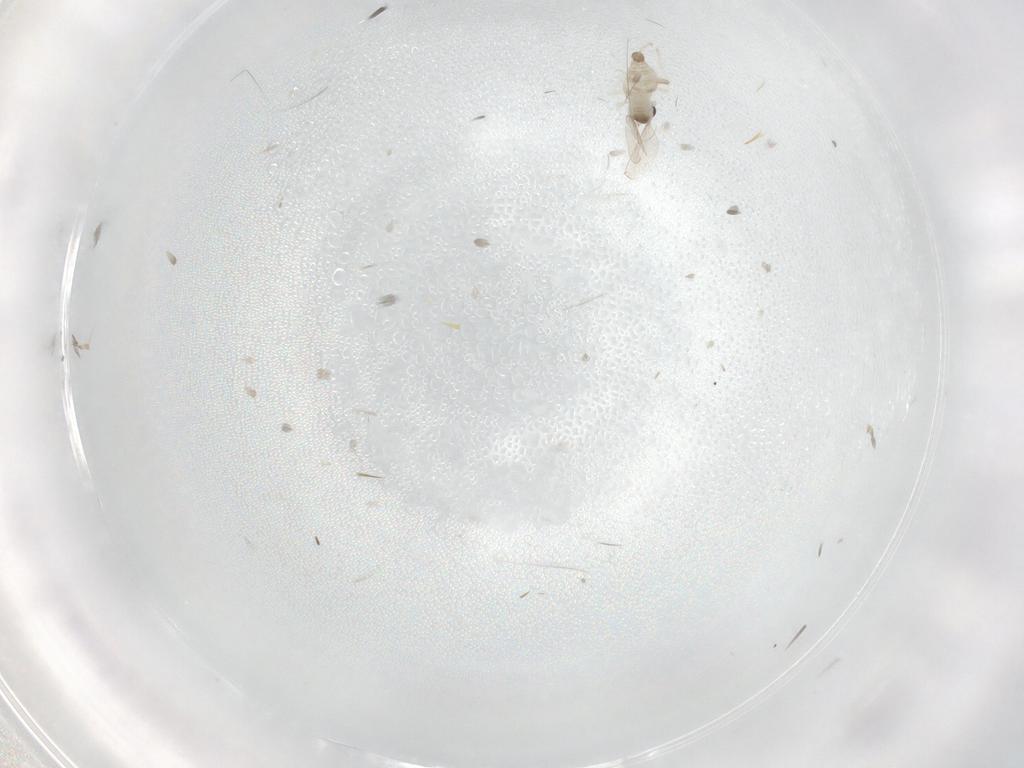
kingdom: Animalia
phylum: Arthropoda
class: Insecta
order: Diptera
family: Cecidomyiidae
